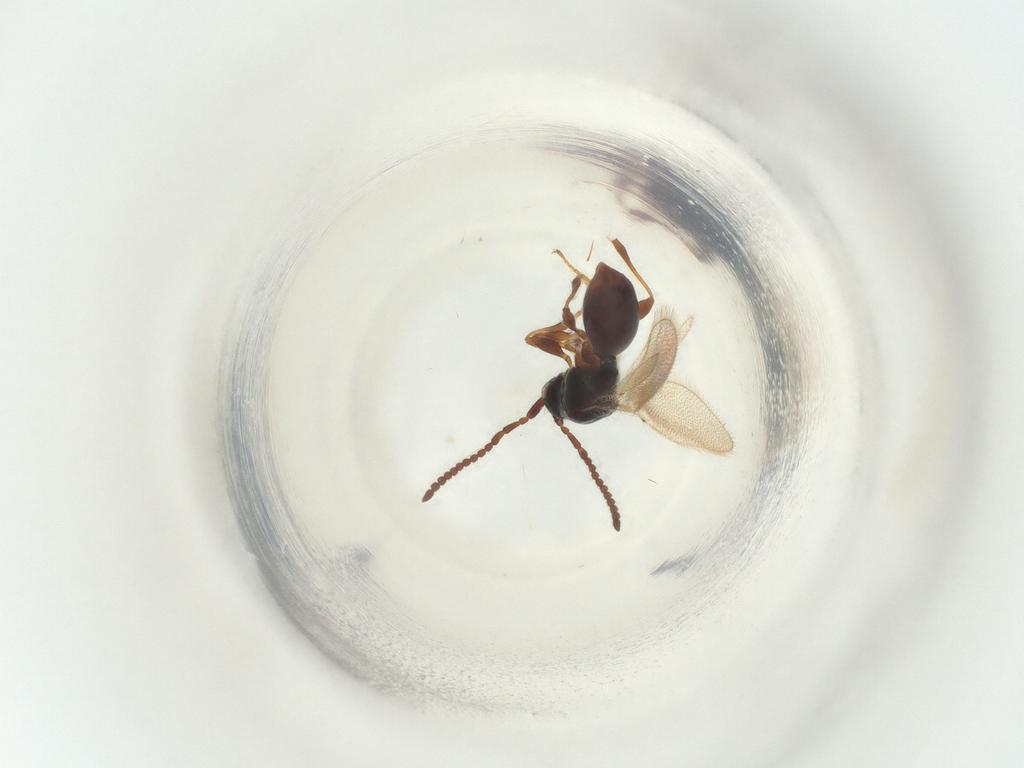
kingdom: Animalia
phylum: Arthropoda
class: Insecta
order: Hymenoptera
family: Diapriidae
